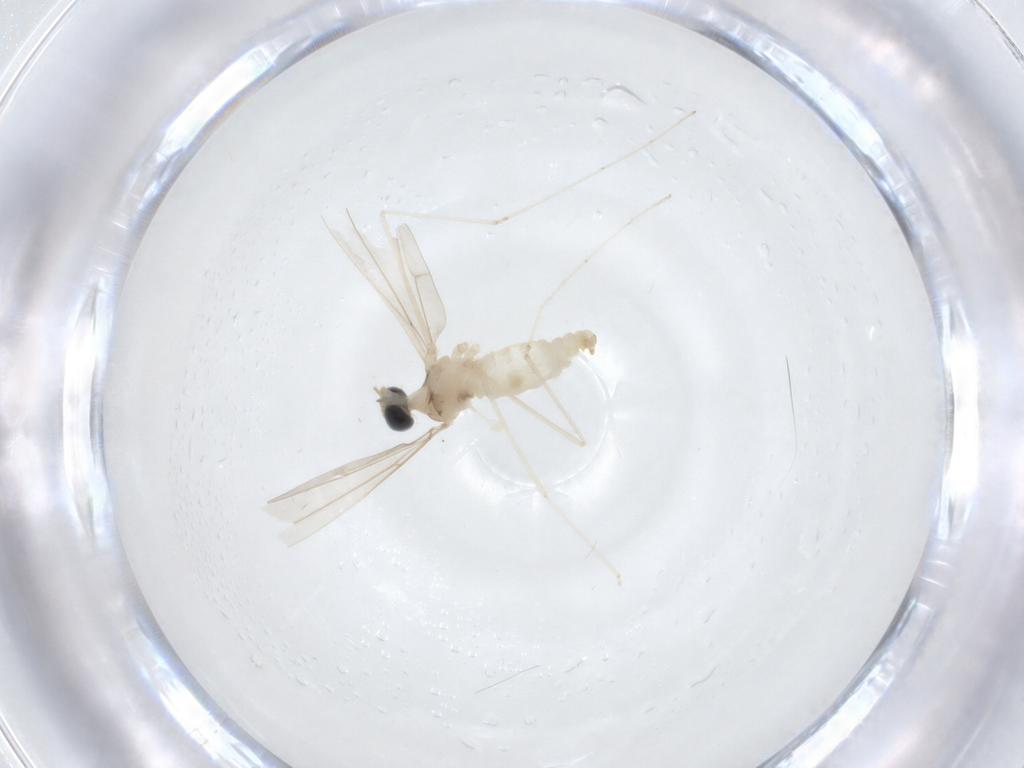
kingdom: Animalia
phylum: Arthropoda
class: Insecta
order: Diptera
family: Cecidomyiidae
